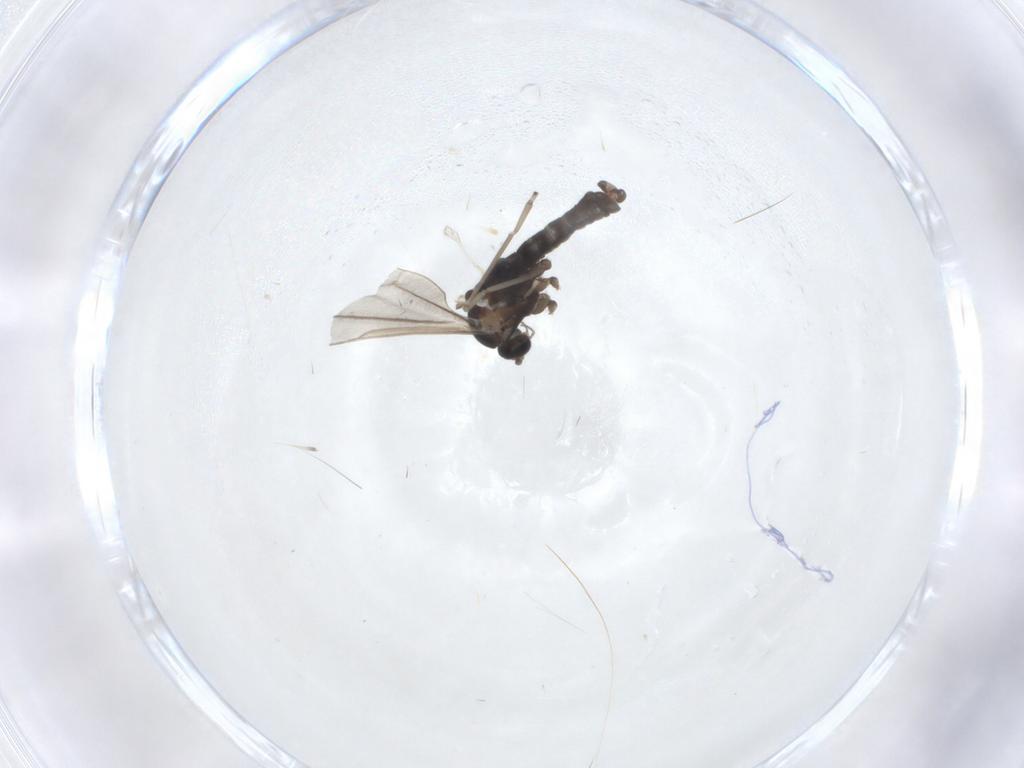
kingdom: Animalia
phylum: Arthropoda
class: Insecta
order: Diptera
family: Cecidomyiidae
